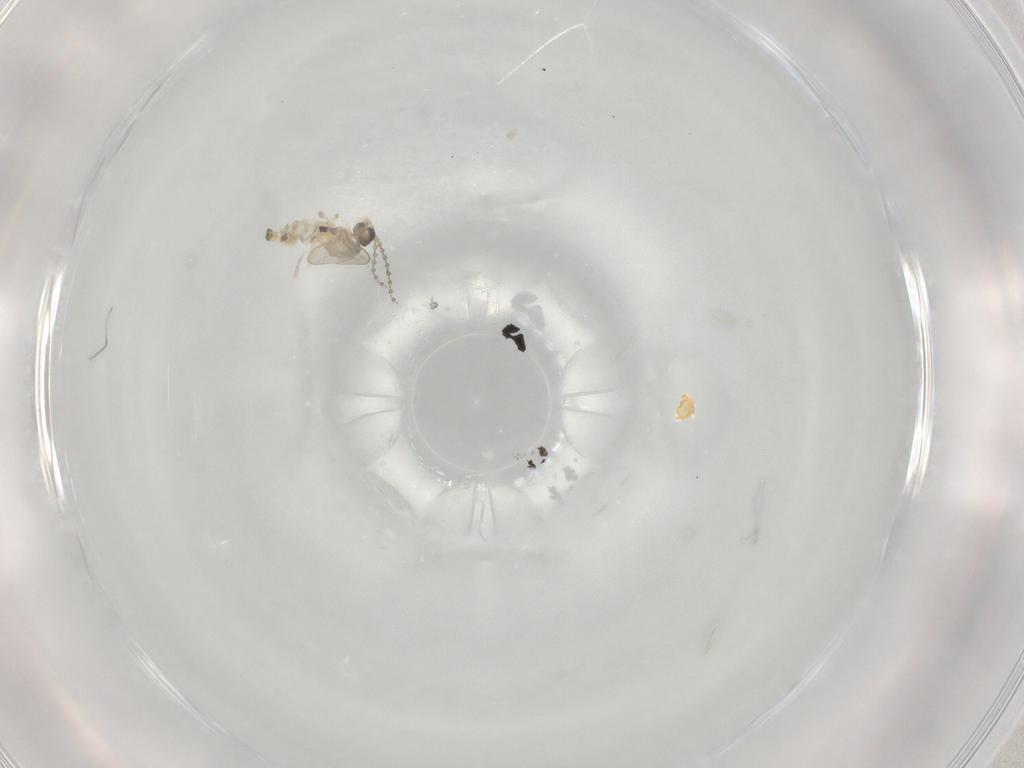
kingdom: Animalia
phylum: Arthropoda
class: Insecta
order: Diptera
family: Cecidomyiidae
